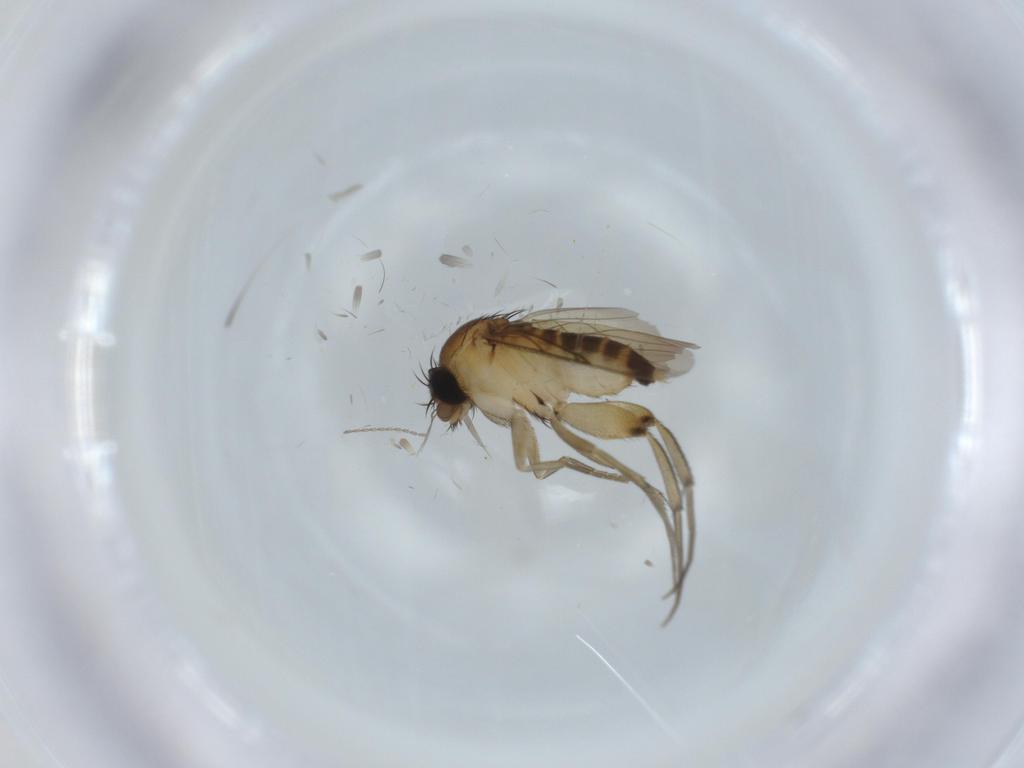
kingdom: Animalia
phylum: Arthropoda
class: Insecta
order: Diptera
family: Phoridae
